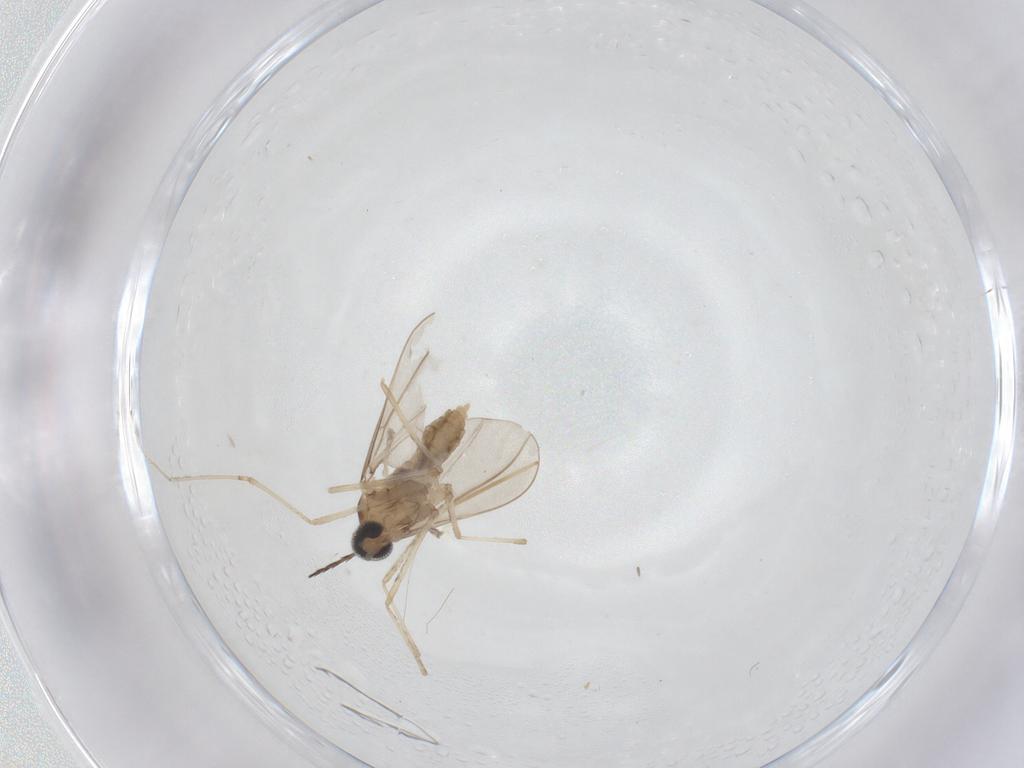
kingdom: Animalia
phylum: Arthropoda
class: Insecta
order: Diptera
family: Cecidomyiidae
